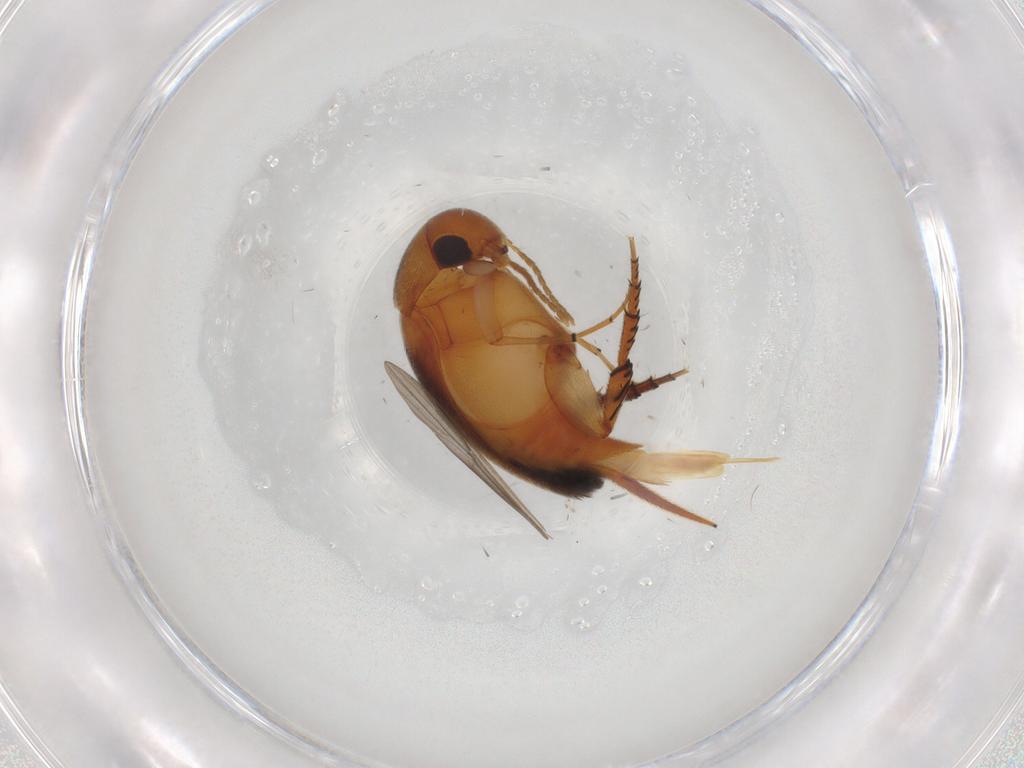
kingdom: Animalia
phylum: Arthropoda
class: Insecta
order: Coleoptera
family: Mordellidae
